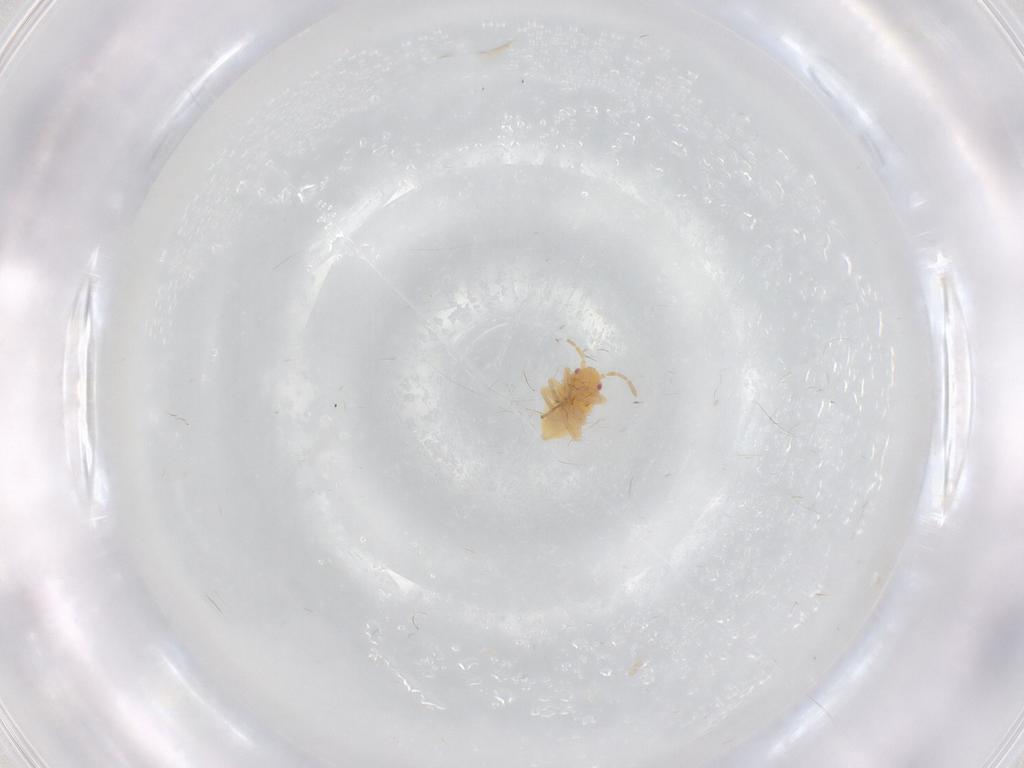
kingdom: Animalia
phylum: Arthropoda
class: Insecta
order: Hemiptera
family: Miridae
